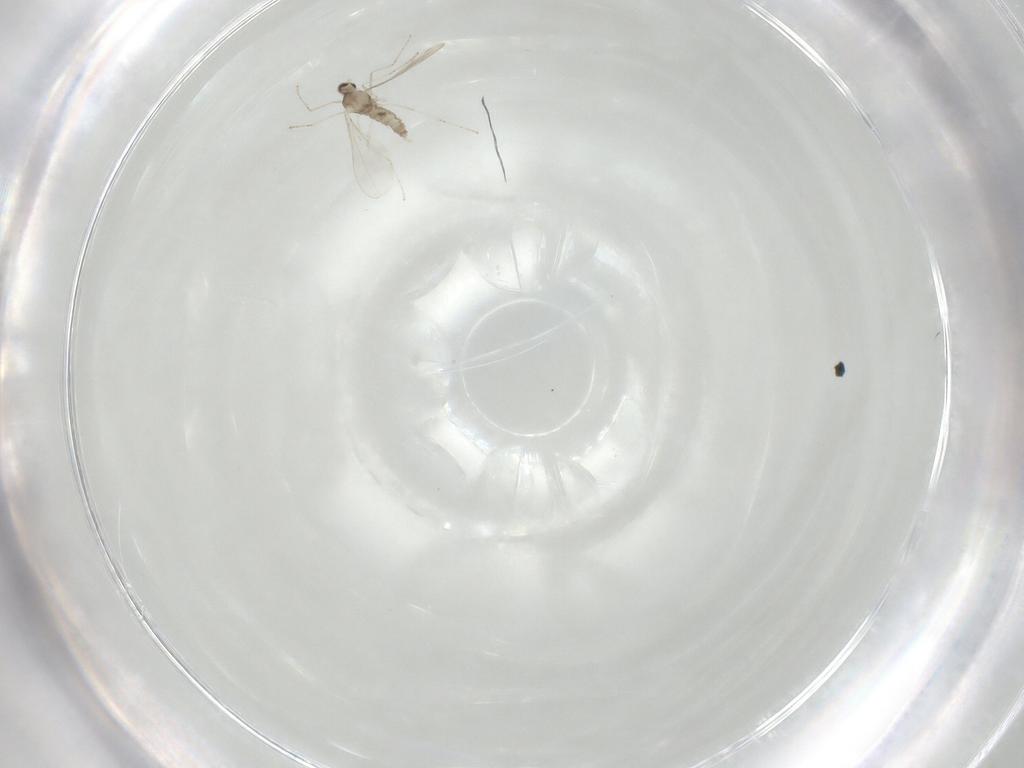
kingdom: Animalia
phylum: Arthropoda
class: Insecta
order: Diptera
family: Cecidomyiidae
